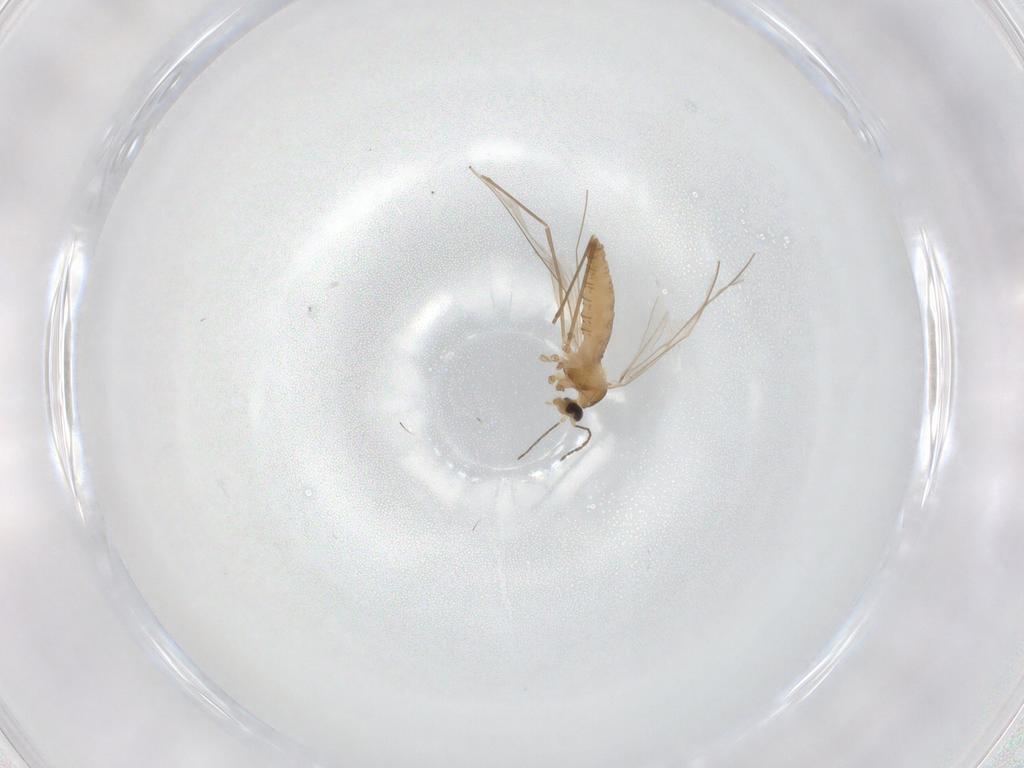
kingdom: Animalia
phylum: Arthropoda
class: Insecta
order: Diptera
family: Cecidomyiidae
